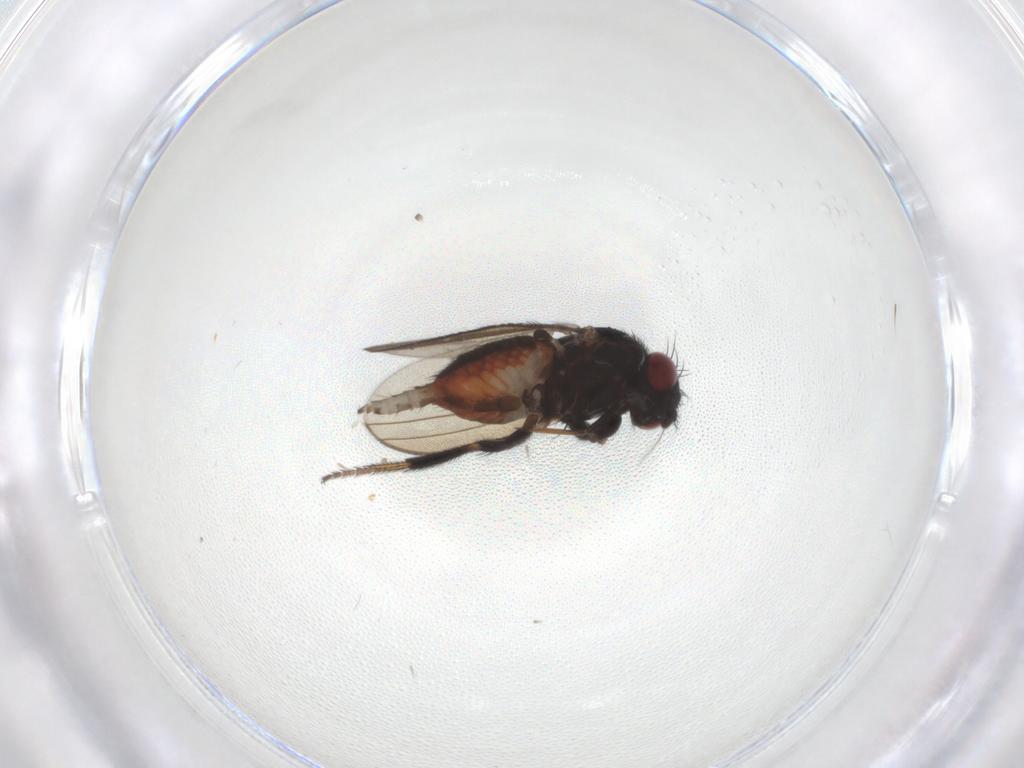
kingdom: Animalia
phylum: Arthropoda
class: Insecta
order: Diptera
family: Milichiidae
